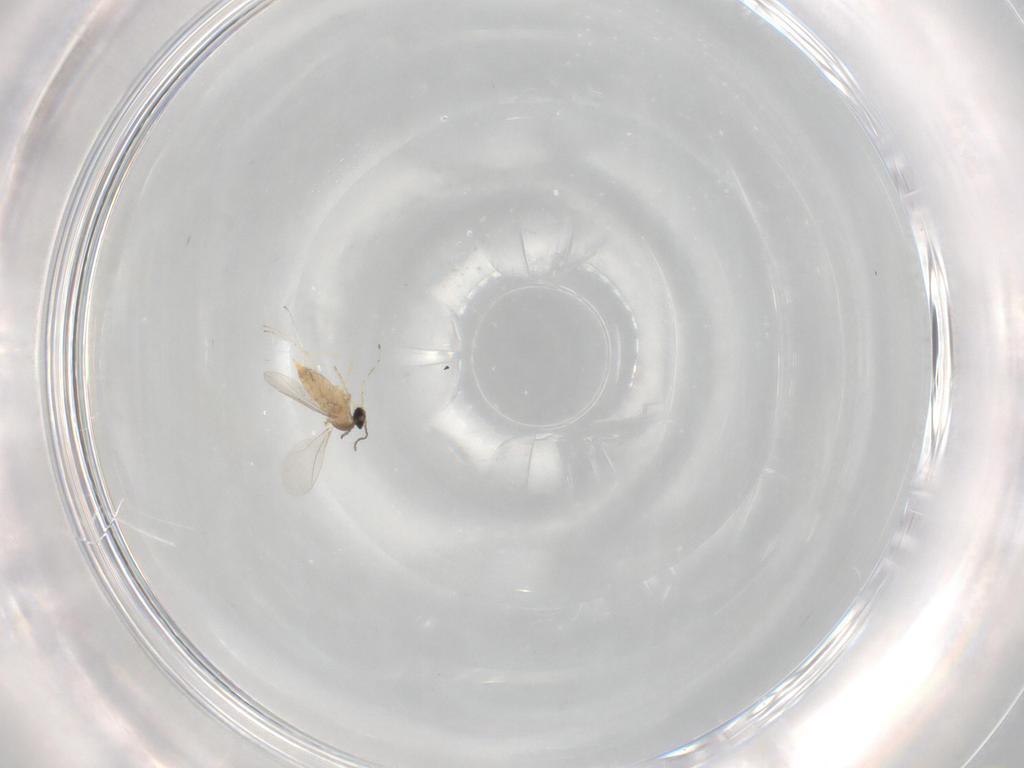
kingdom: Animalia
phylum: Arthropoda
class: Insecta
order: Diptera
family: Cecidomyiidae
